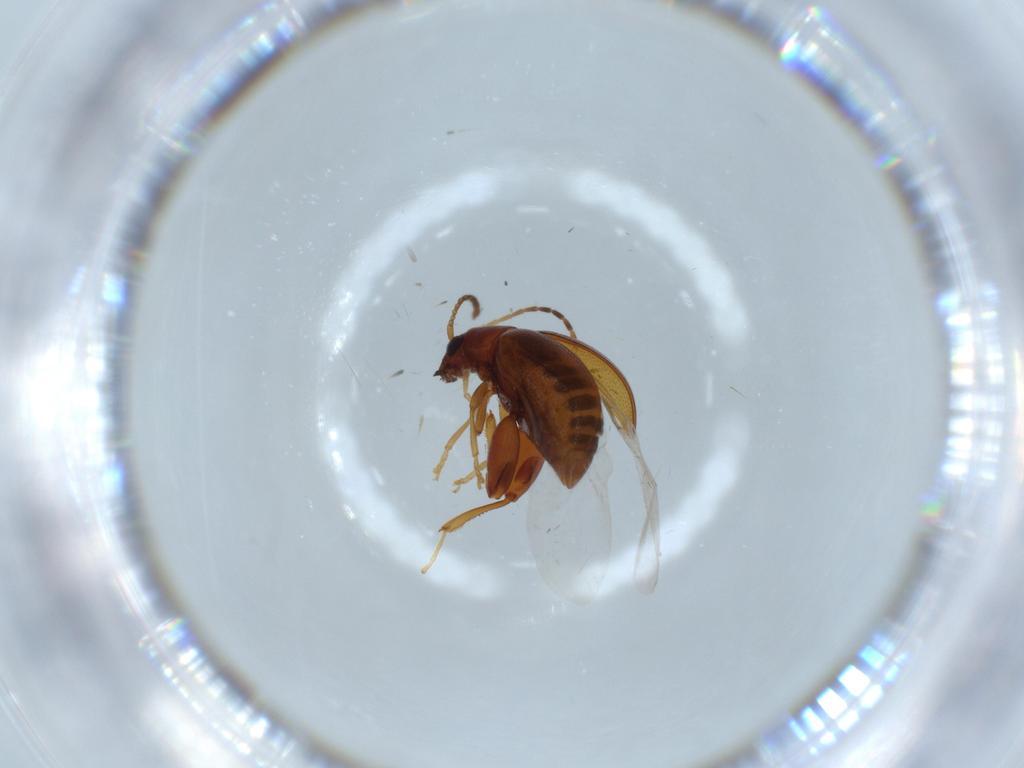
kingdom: Animalia
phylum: Arthropoda
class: Insecta
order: Coleoptera
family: Chrysomelidae
